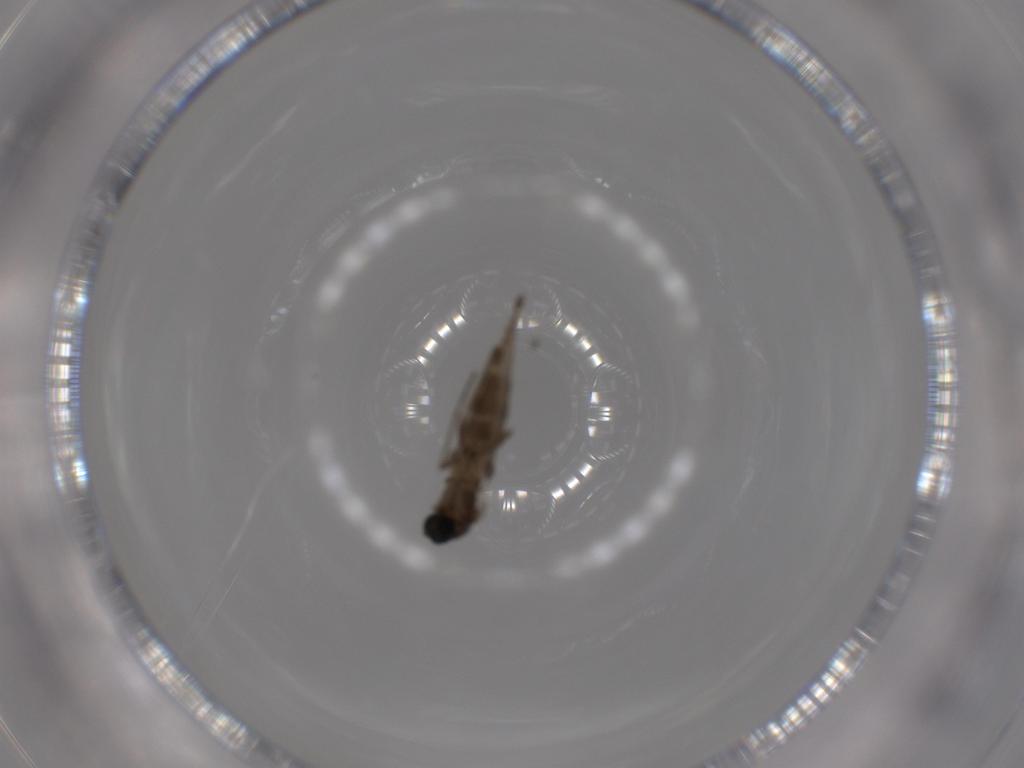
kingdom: Animalia
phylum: Arthropoda
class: Insecta
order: Diptera
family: Sciaridae
